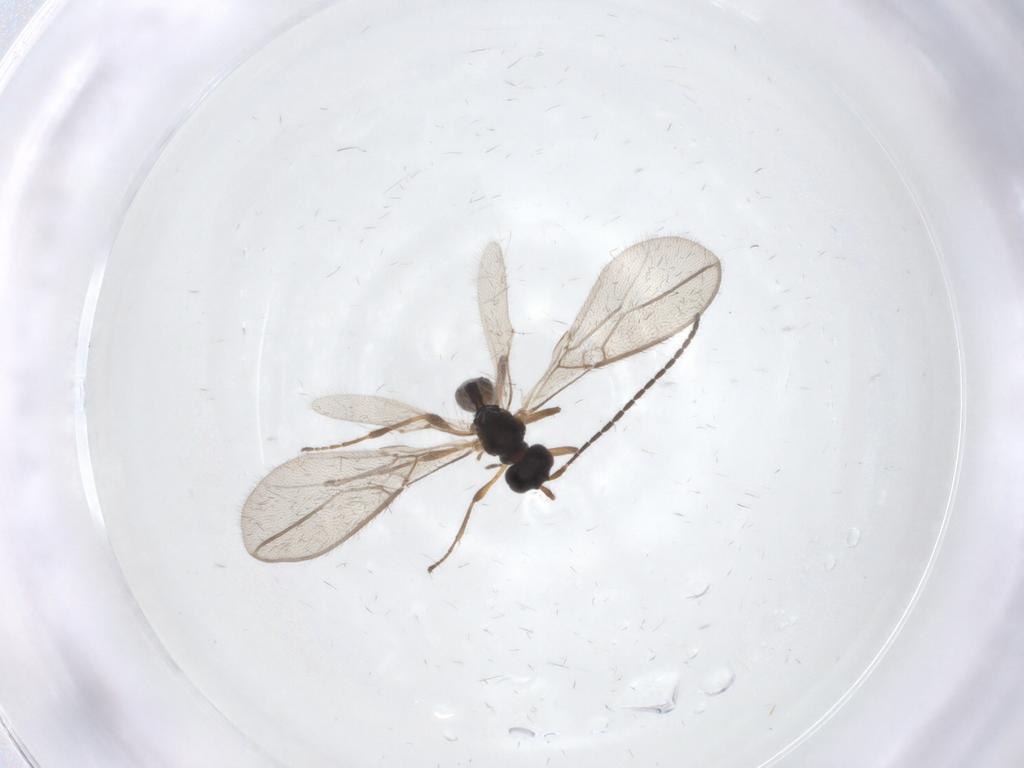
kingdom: Animalia
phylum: Arthropoda
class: Insecta
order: Hymenoptera
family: Braconidae
